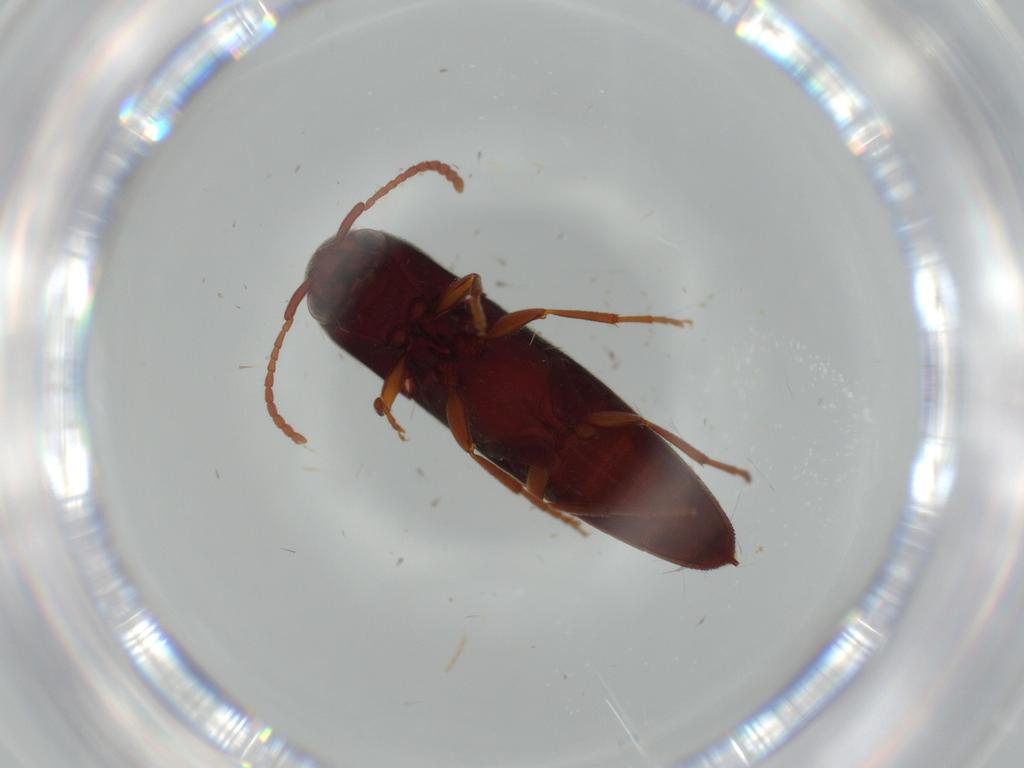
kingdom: Animalia
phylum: Arthropoda
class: Insecta
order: Coleoptera
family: Eucnemidae
